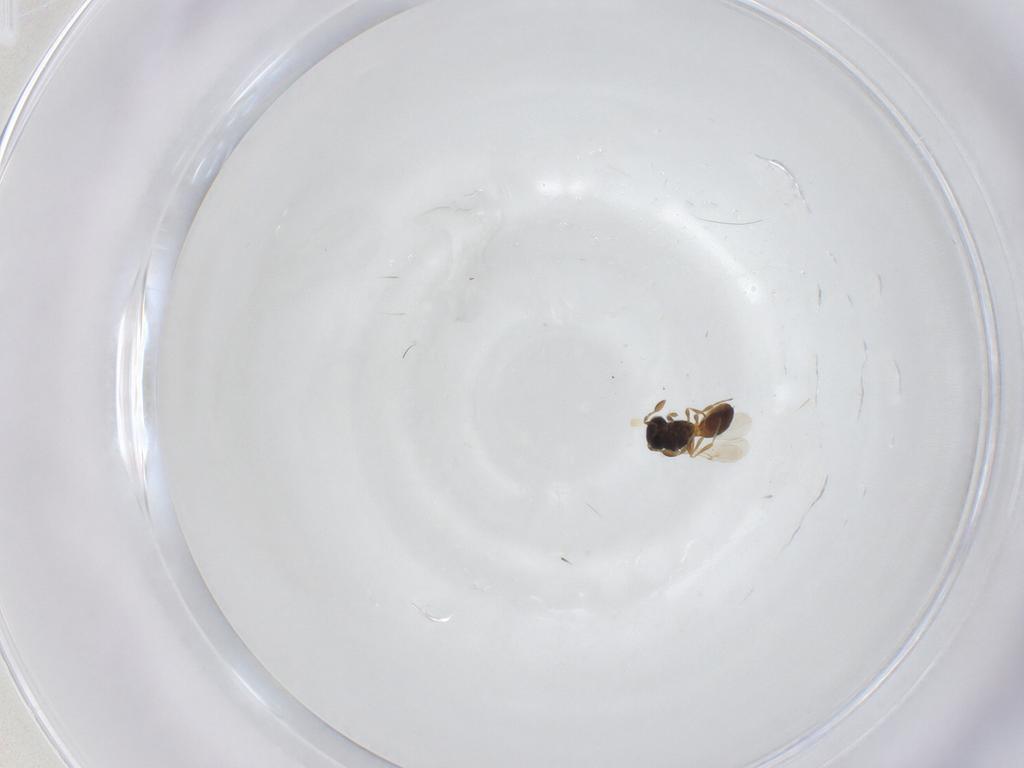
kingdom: Animalia
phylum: Arthropoda
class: Insecta
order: Hymenoptera
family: Scelionidae
